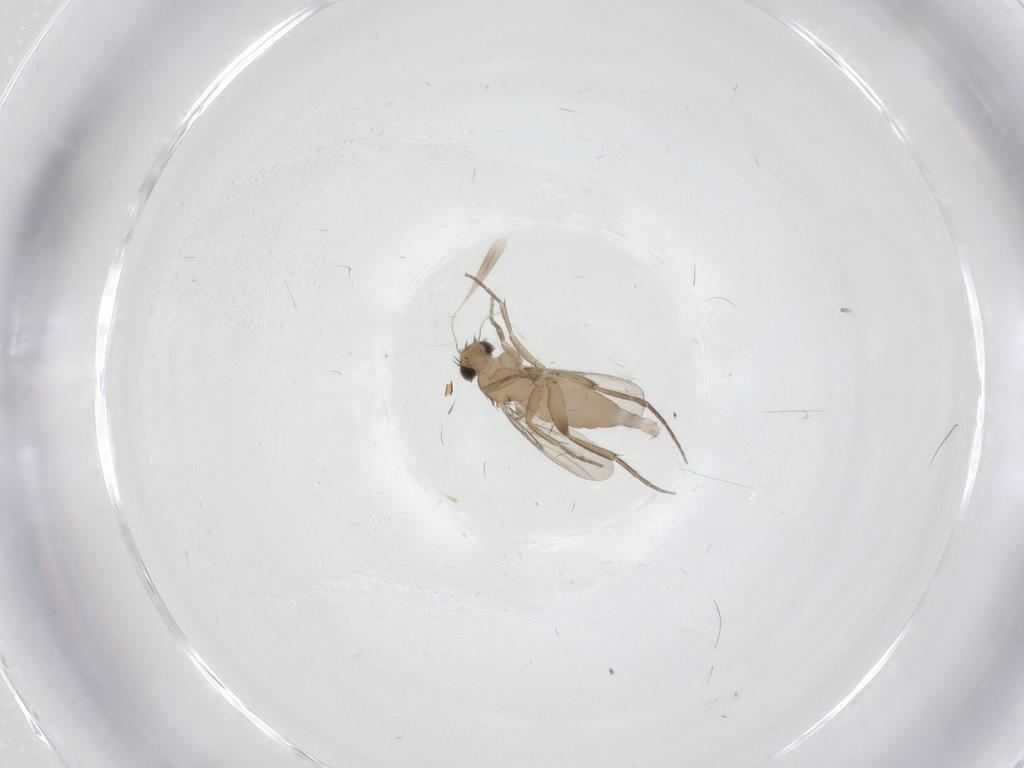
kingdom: Animalia
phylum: Arthropoda
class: Insecta
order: Diptera
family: Phoridae
